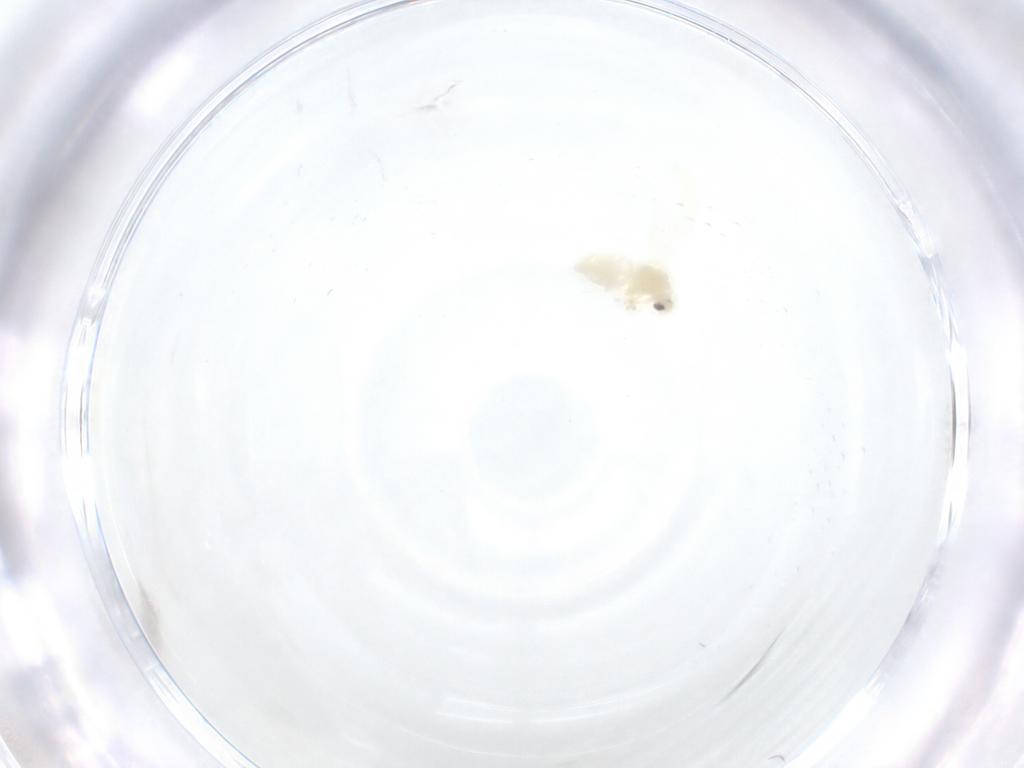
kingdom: Animalia
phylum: Arthropoda
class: Insecta
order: Hemiptera
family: Aleyrodidae
